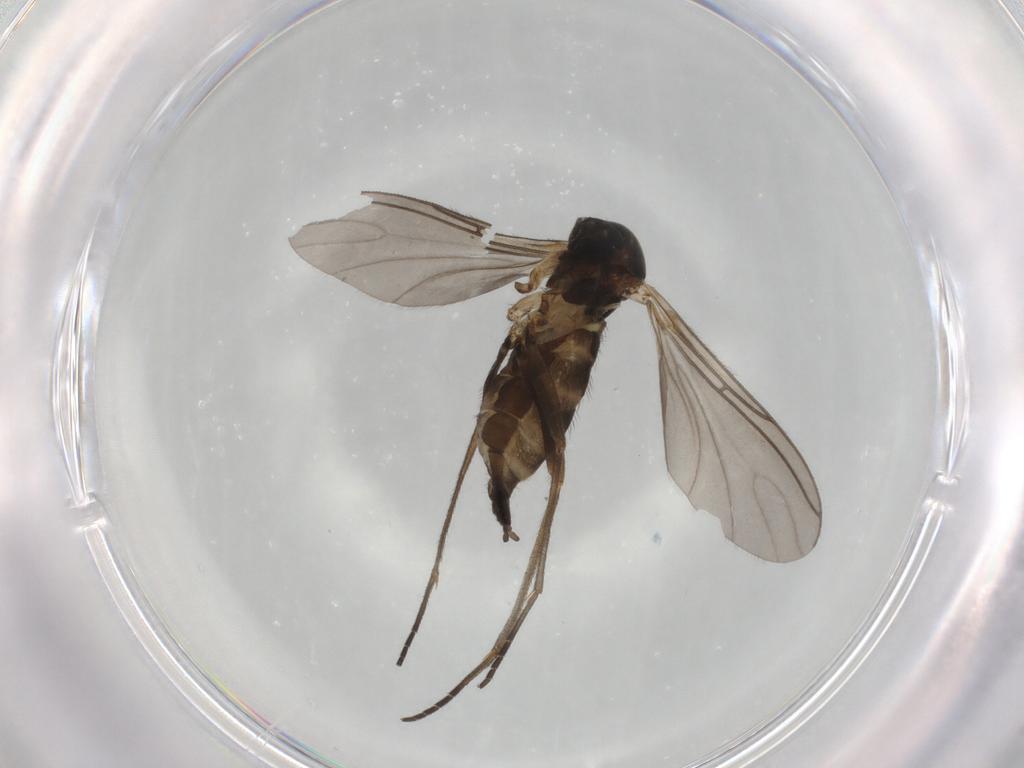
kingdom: Animalia
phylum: Arthropoda
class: Insecta
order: Diptera
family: Sciaridae
